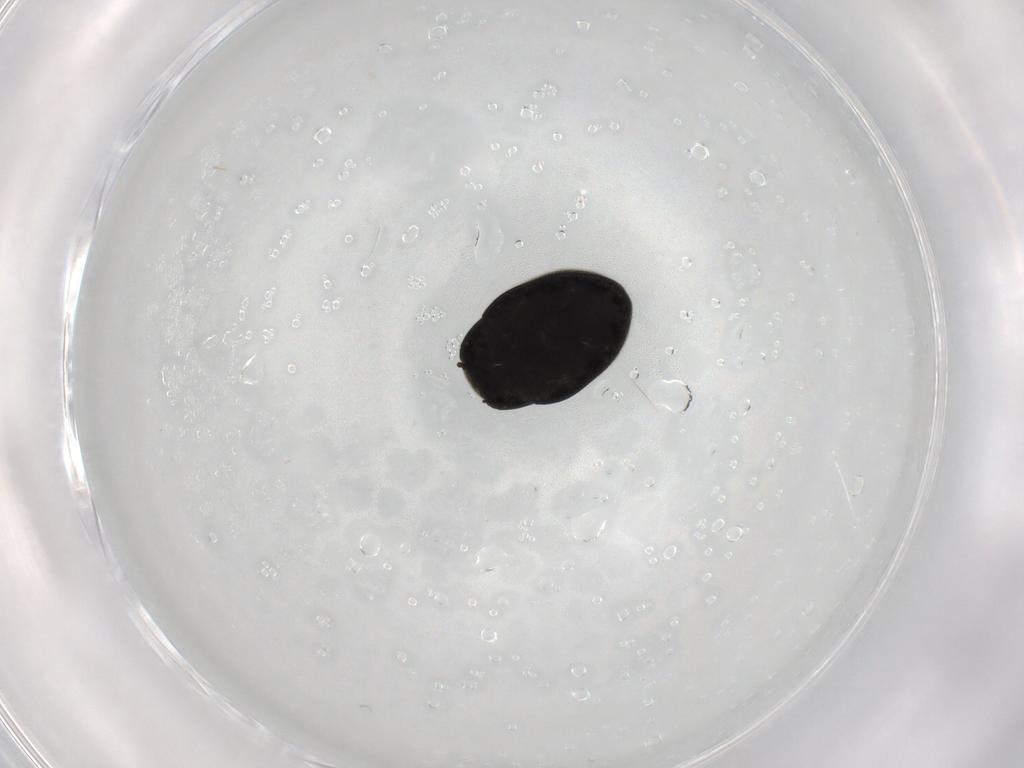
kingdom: Animalia
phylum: Arthropoda
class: Insecta
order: Coleoptera
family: Limnichidae
